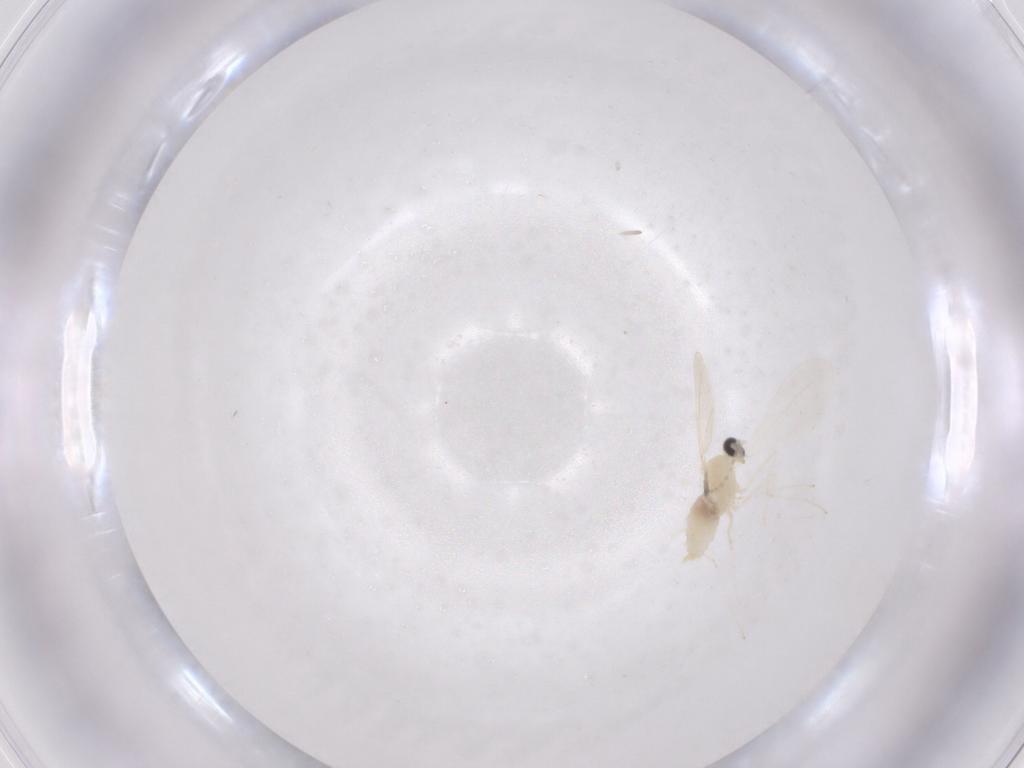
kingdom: Animalia
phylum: Arthropoda
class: Insecta
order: Diptera
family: Cecidomyiidae
